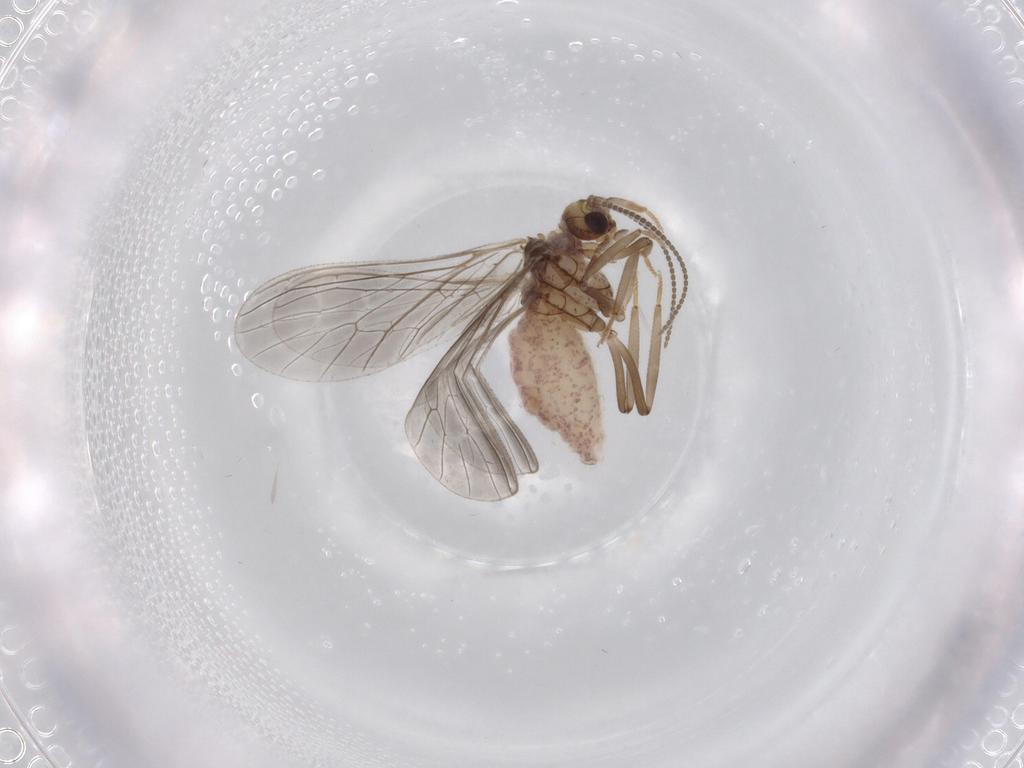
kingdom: Animalia
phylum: Arthropoda
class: Insecta
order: Neuroptera
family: Coniopterygidae
